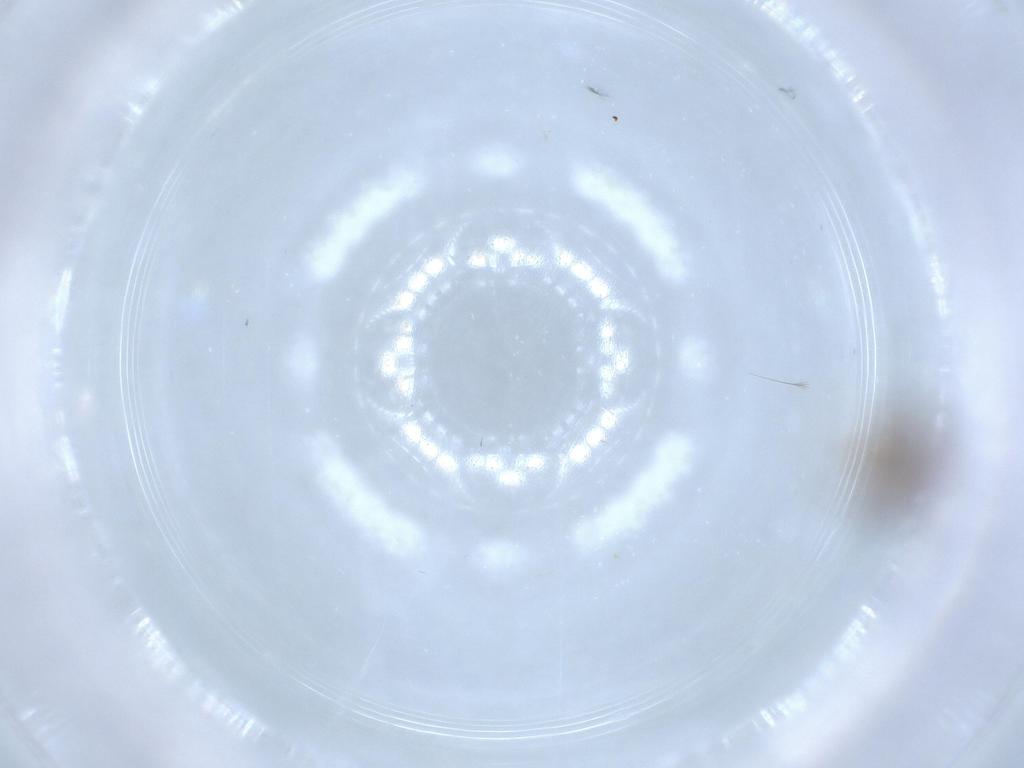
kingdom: Animalia
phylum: Arthropoda
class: Insecta
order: Hymenoptera
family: Figitidae
